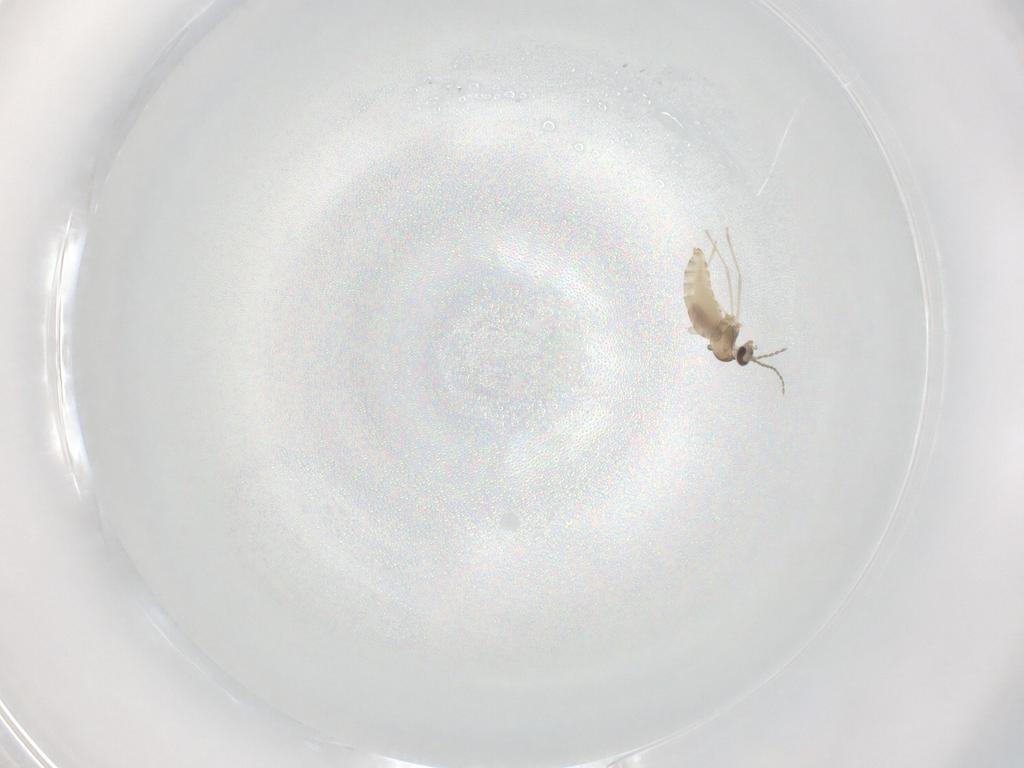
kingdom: Animalia
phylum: Arthropoda
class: Insecta
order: Diptera
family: Cecidomyiidae
